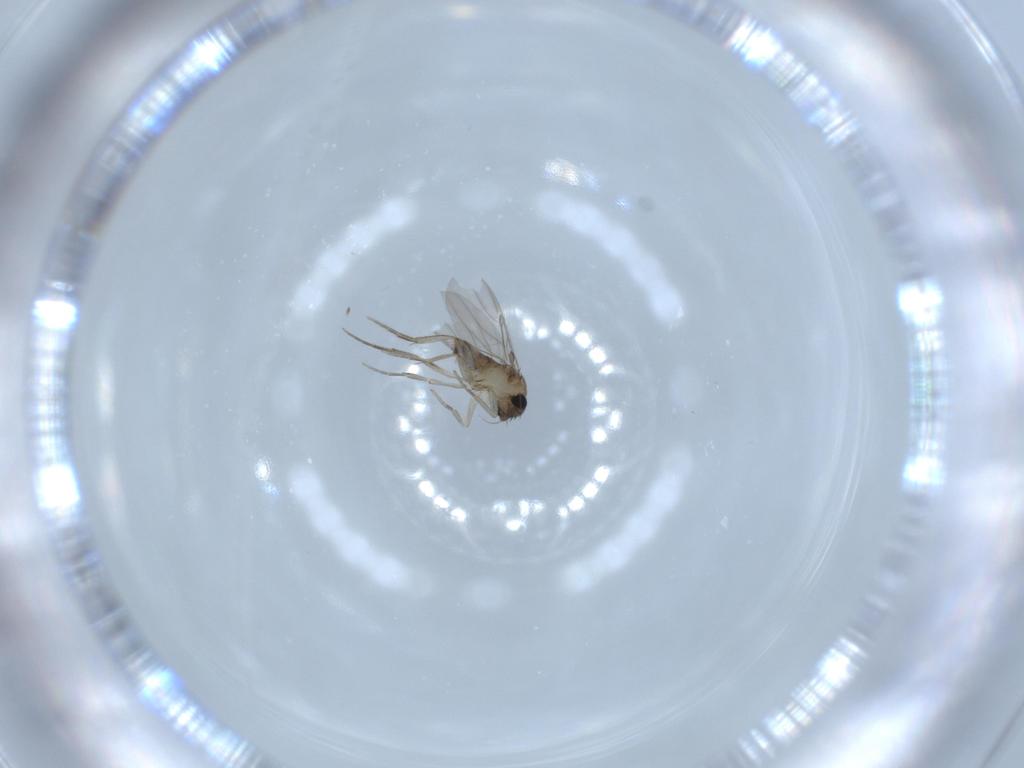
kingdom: Animalia
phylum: Arthropoda
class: Insecta
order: Diptera
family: Phoridae
